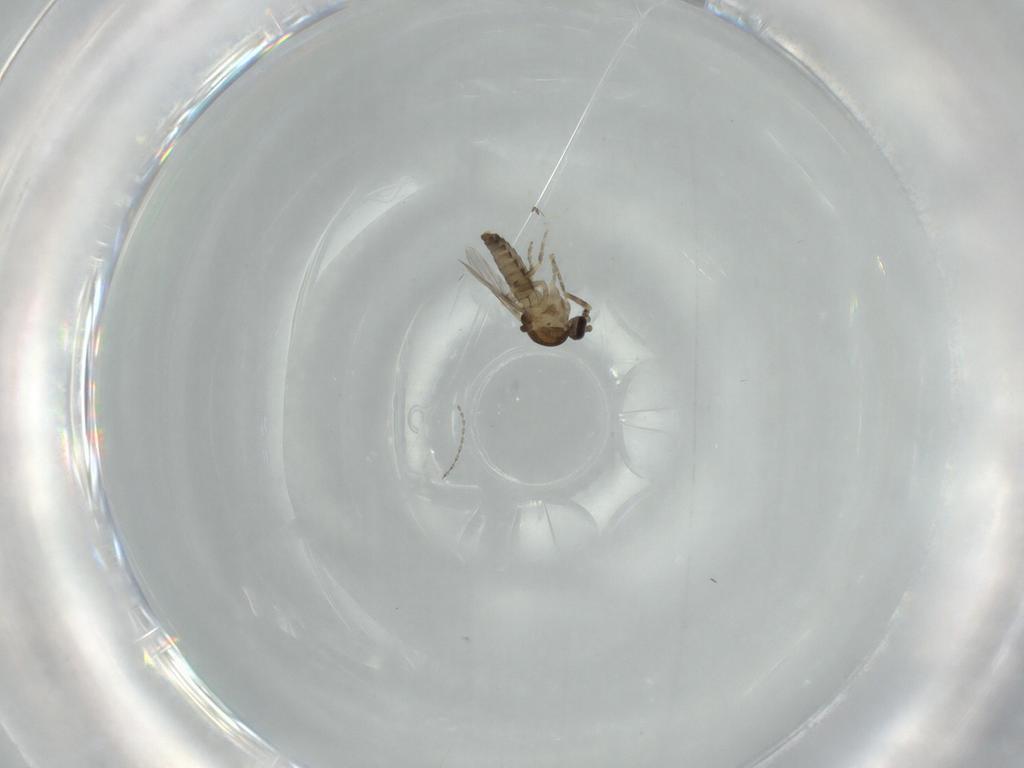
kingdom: Animalia
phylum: Arthropoda
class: Insecta
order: Diptera
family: Ceratopogonidae
